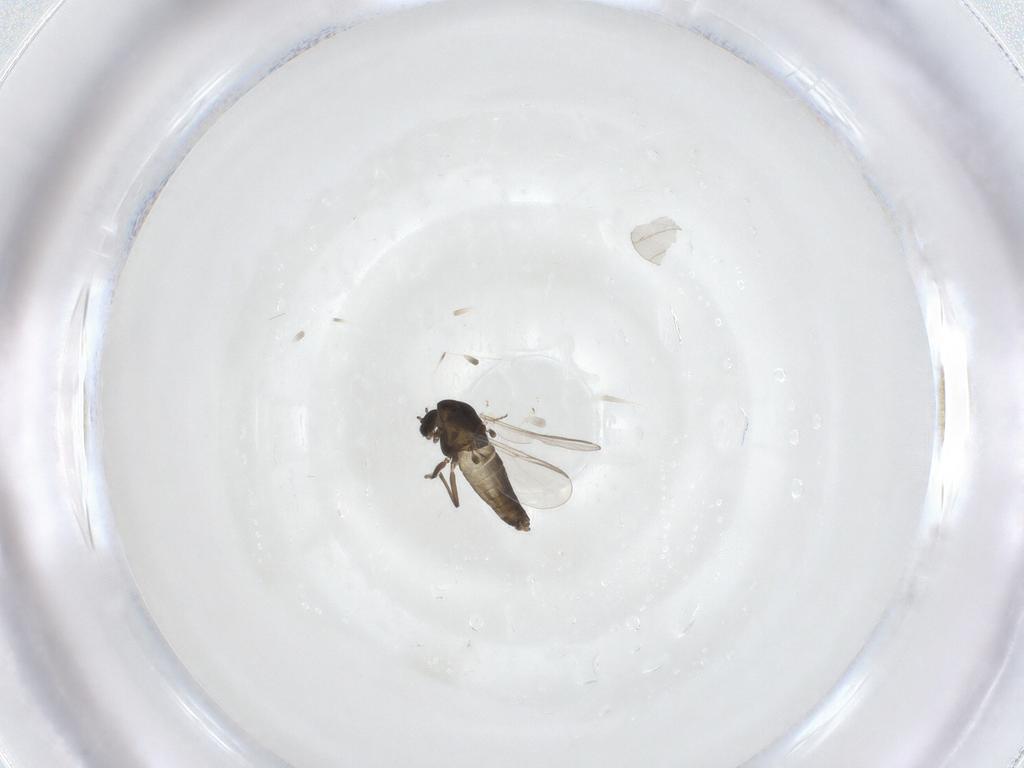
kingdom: Animalia
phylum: Arthropoda
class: Insecta
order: Diptera
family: Sciaridae
